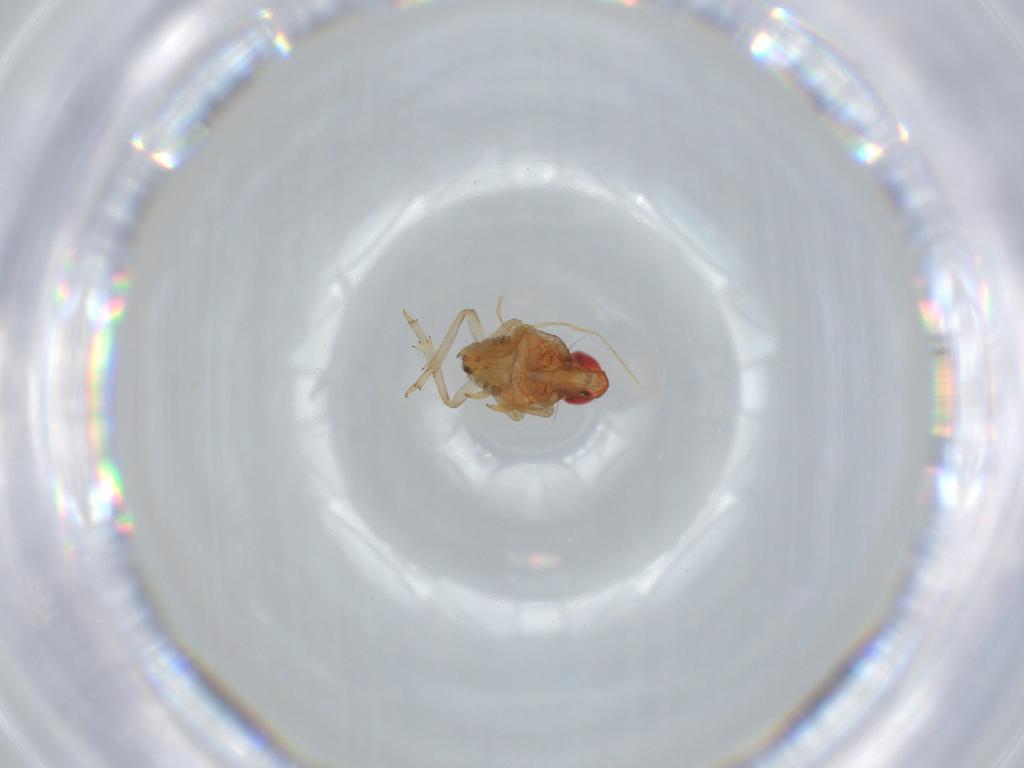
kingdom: Animalia
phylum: Arthropoda
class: Insecta
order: Hemiptera
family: Fulgoroidea_incertae_sedis
